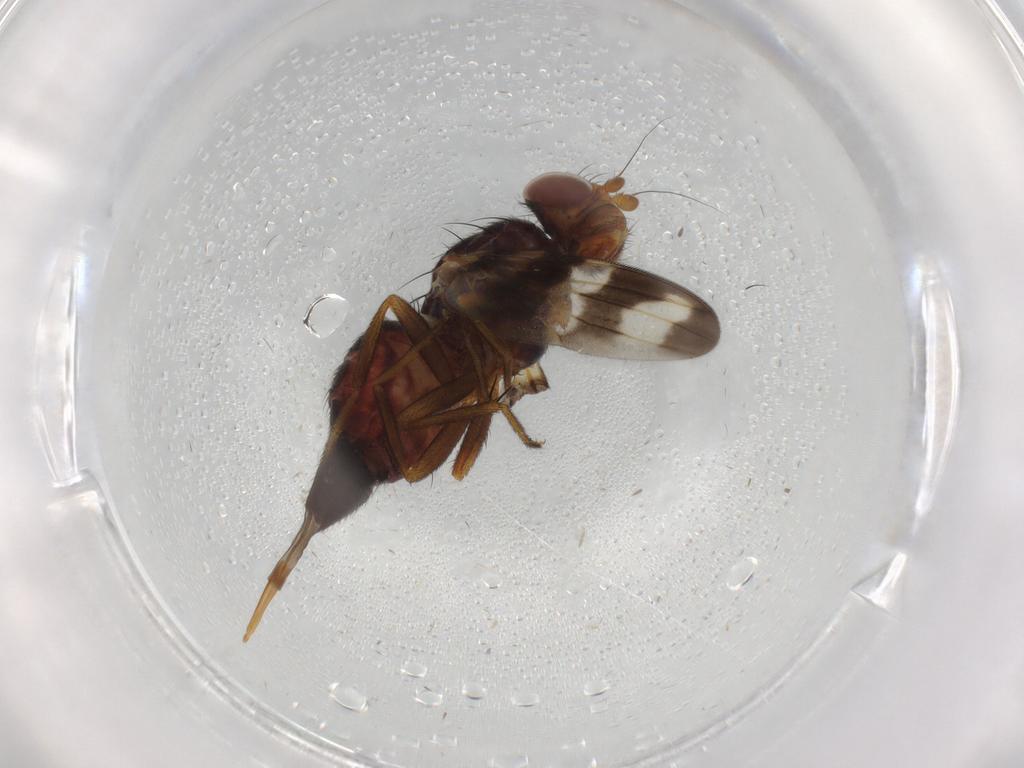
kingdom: Animalia
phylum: Arthropoda
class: Insecta
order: Diptera
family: Ulidiidae
